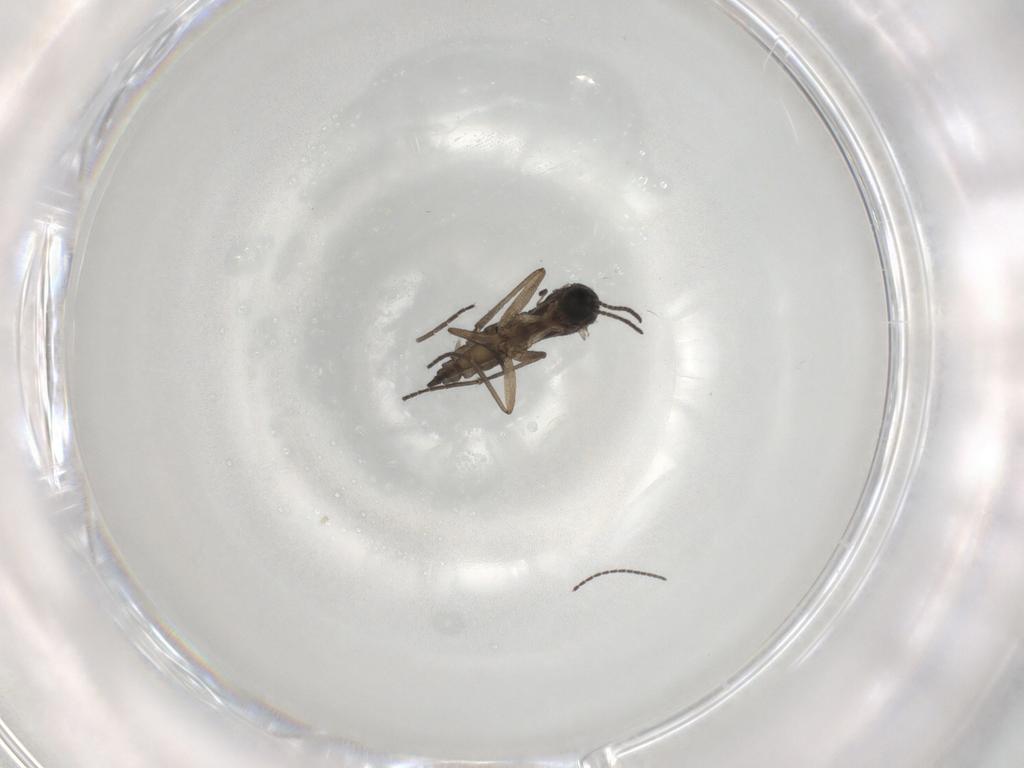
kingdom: Animalia
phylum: Arthropoda
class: Insecta
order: Diptera
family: Sciaridae
